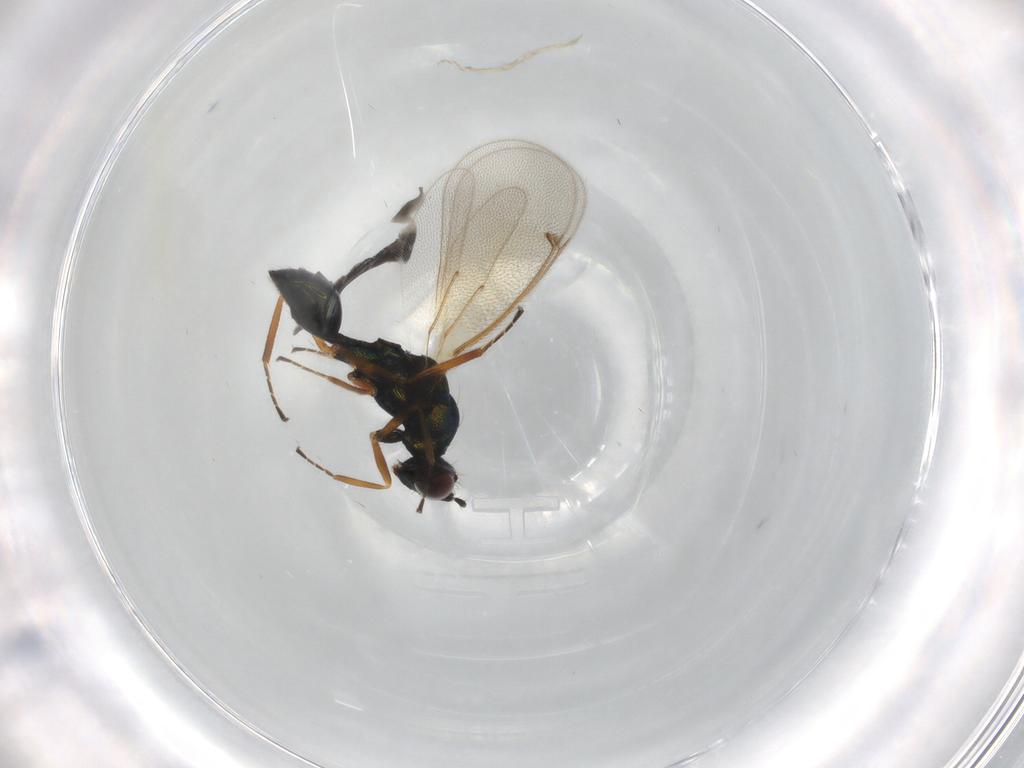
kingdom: Animalia
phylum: Arthropoda
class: Insecta
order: Hymenoptera
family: Eulophidae
